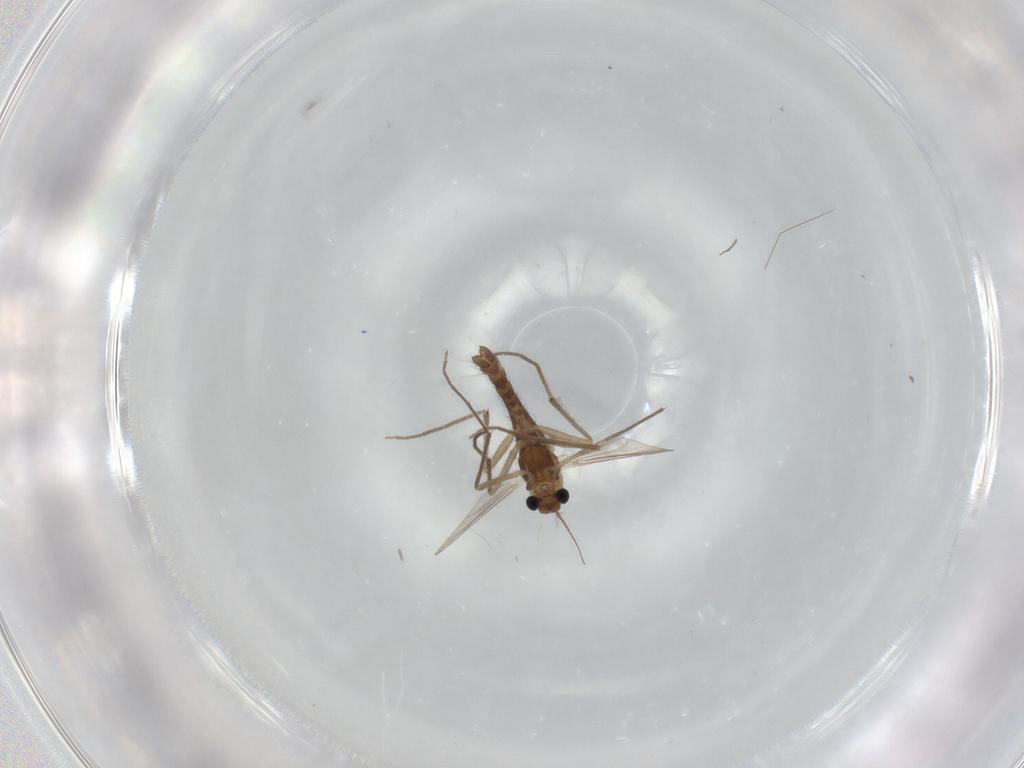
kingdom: Animalia
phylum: Arthropoda
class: Insecta
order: Diptera
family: Chironomidae
